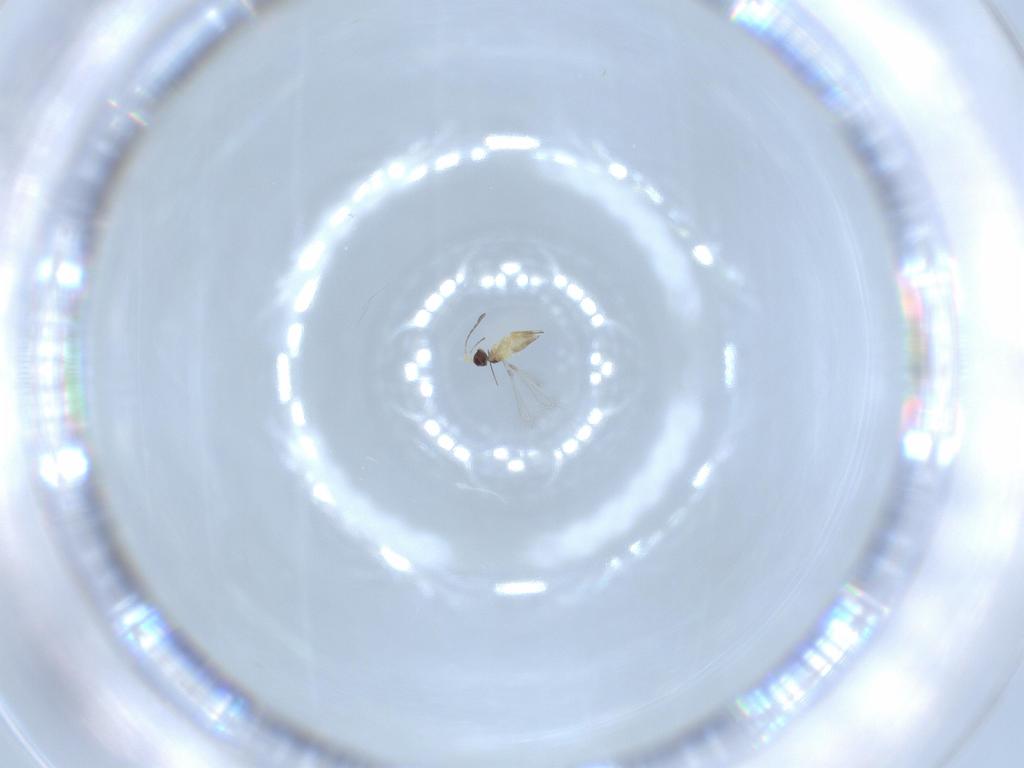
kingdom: Animalia
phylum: Arthropoda
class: Insecta
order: Hymenoptera
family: Mymaridae
